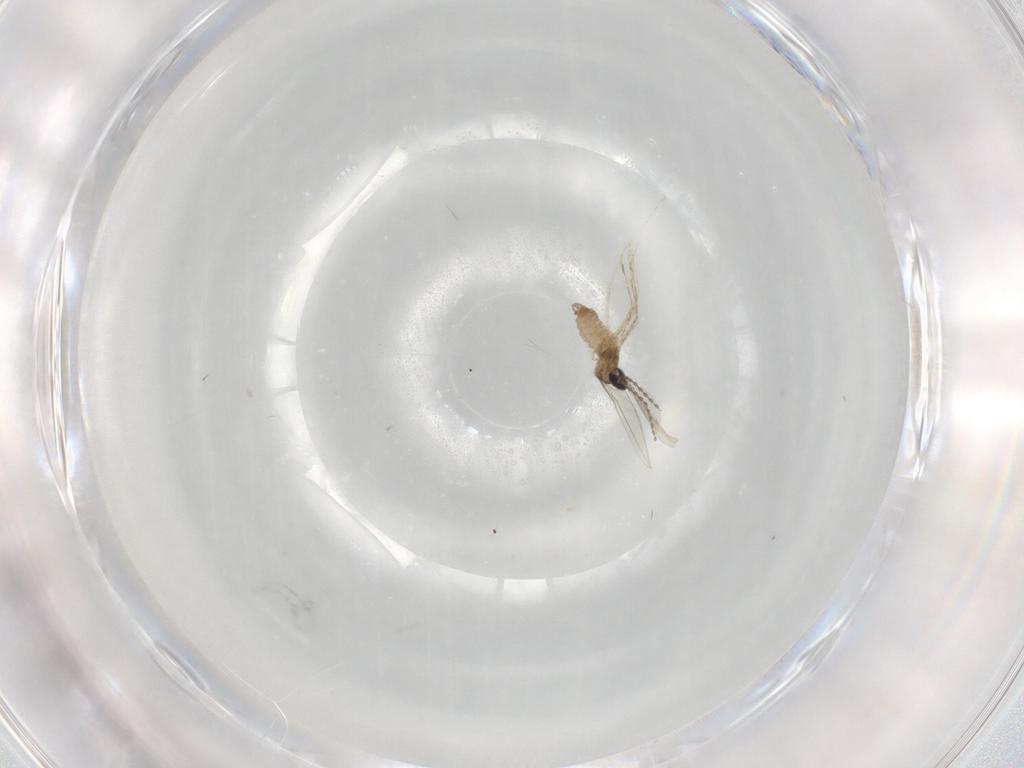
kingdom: Animalia
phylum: Arthropoda
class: Insecta
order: Diptera
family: Cecidomyiidae
